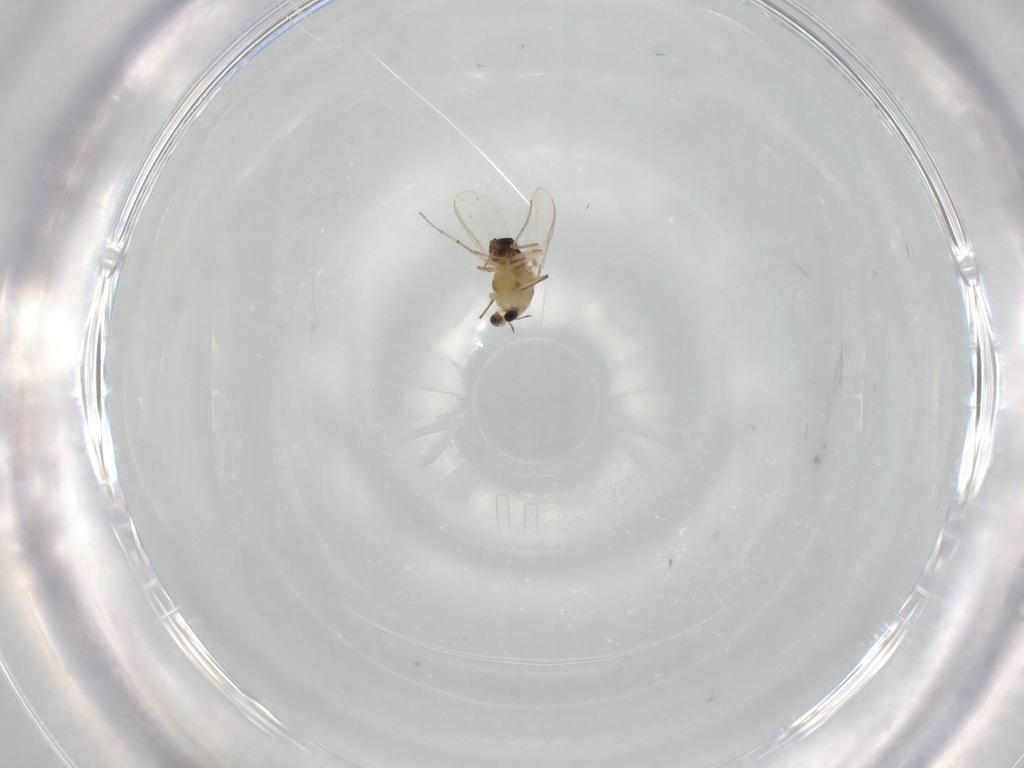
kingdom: Animalia
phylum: Arthropoda
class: Insecta
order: Diptera
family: Chironomidae
